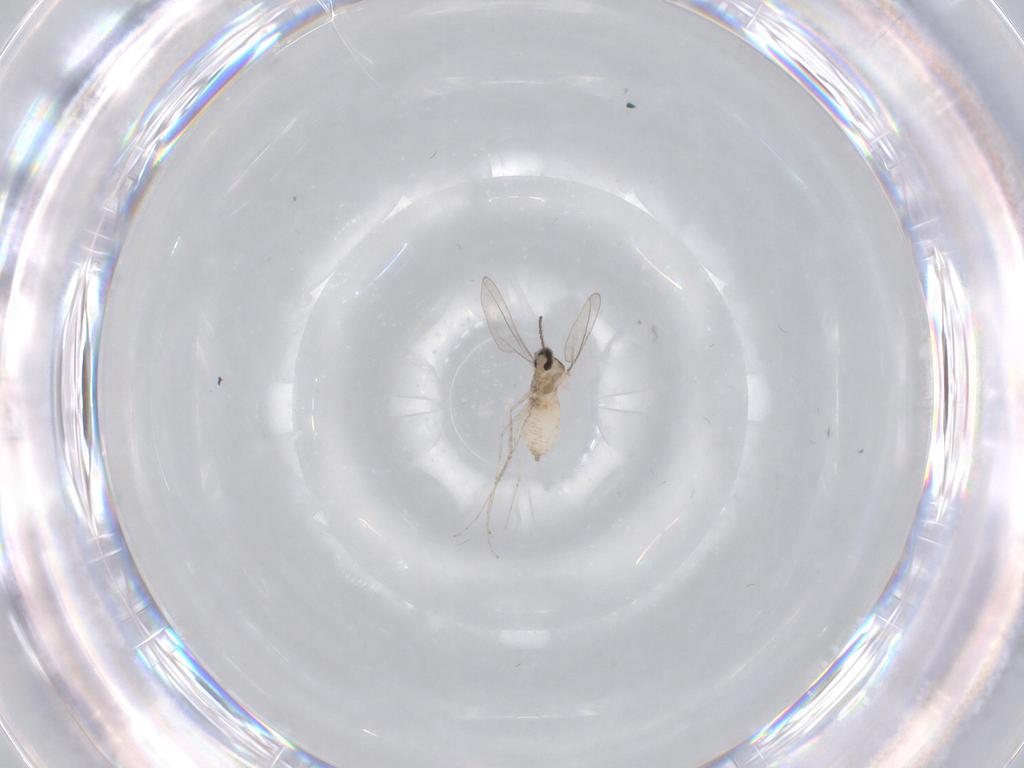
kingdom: Animalia
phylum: Arthropoda
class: Insecta
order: Diptera
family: Cecidomyiidae
